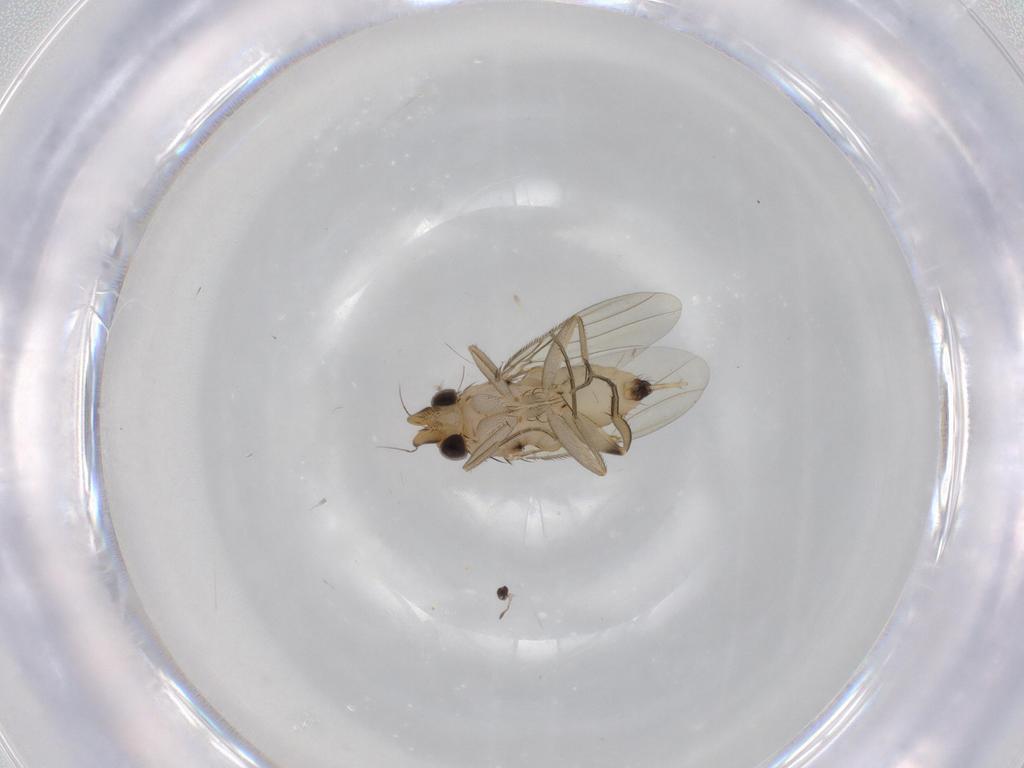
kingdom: Animalia
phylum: Arthropoda
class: Insecta
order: Diptera
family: Phoridae
